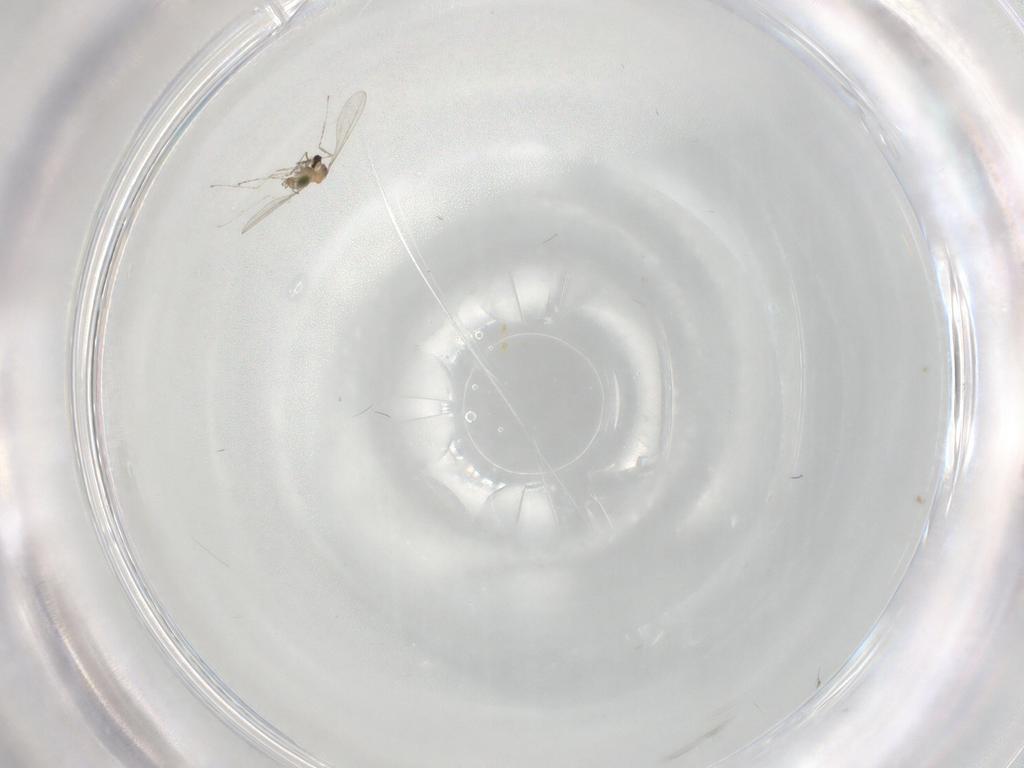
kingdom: Animalia
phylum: Arthropoda
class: Insecta
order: Diptera
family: Cecidomyiidae
